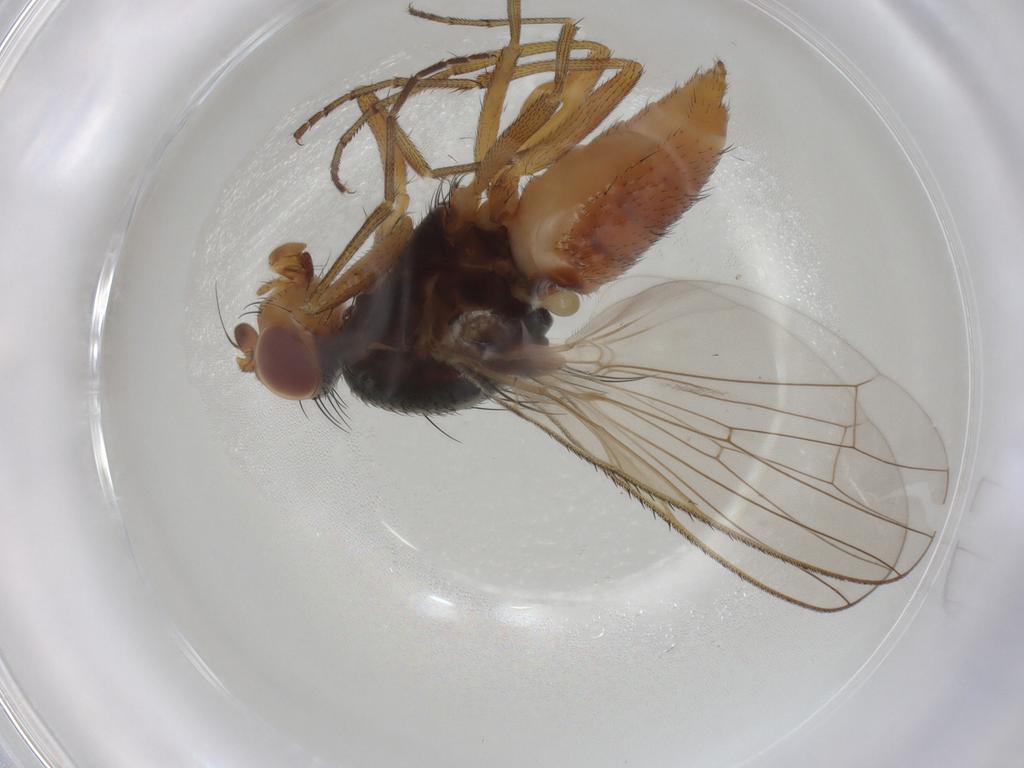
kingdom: Animalia
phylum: Arthropoda
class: Insecta
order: Diptera
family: Heleomyzidae
